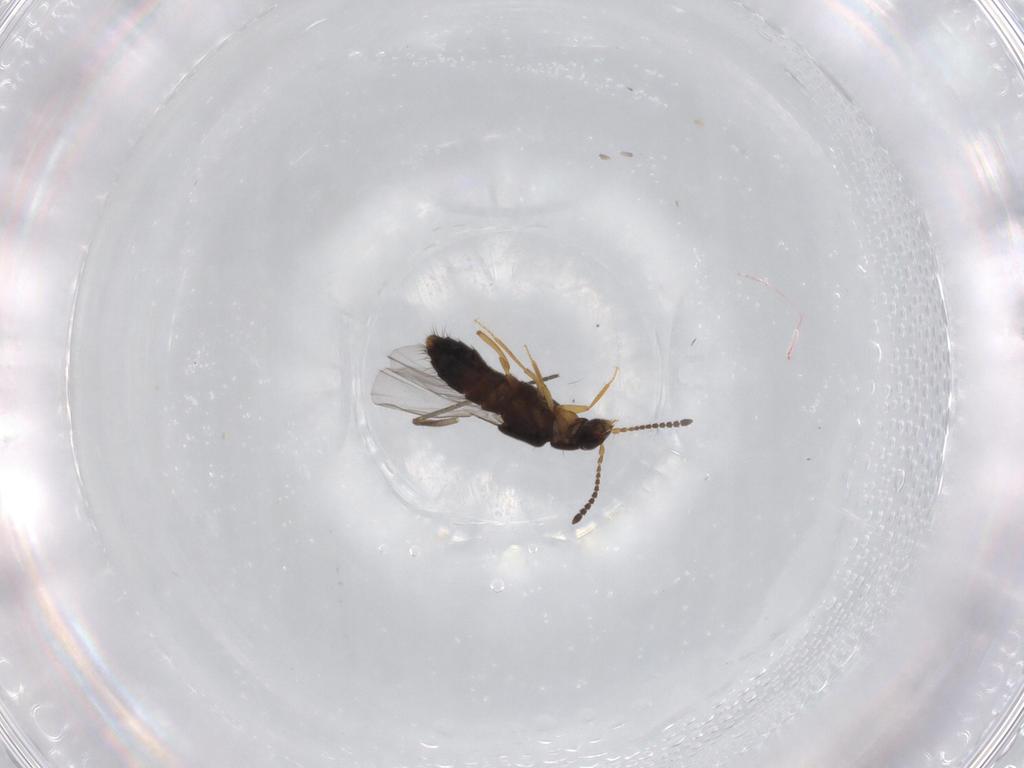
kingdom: Animalia
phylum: Arthropoda
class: Insecta
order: Coleoptera
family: Staphylinidae
